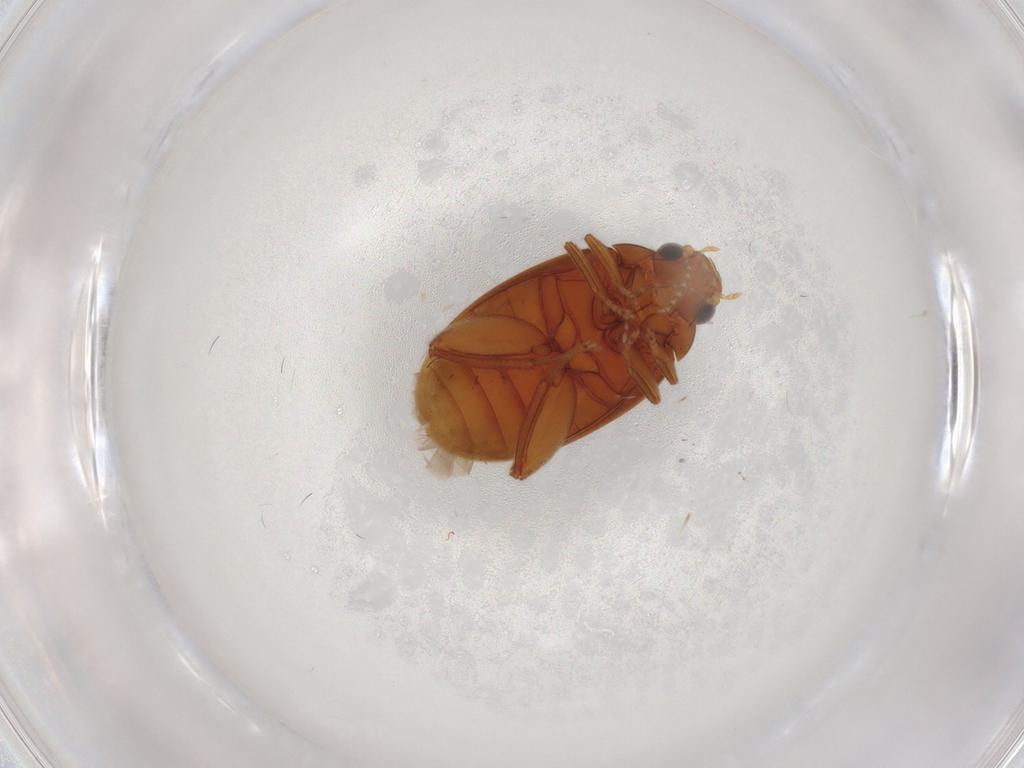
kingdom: Animalia
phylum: Arthropoda
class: Insecta
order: Coleoptera
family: Scirtidae
